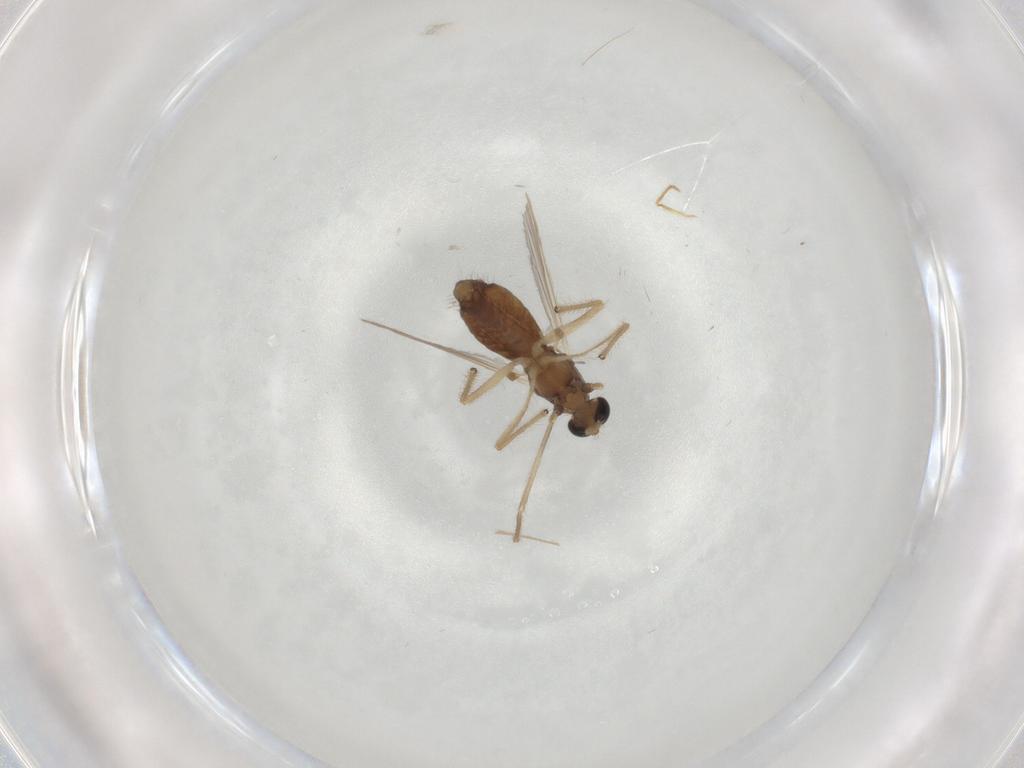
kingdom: Animalia
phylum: Arthropoda
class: Insecta
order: Diptera
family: Chironomidae
